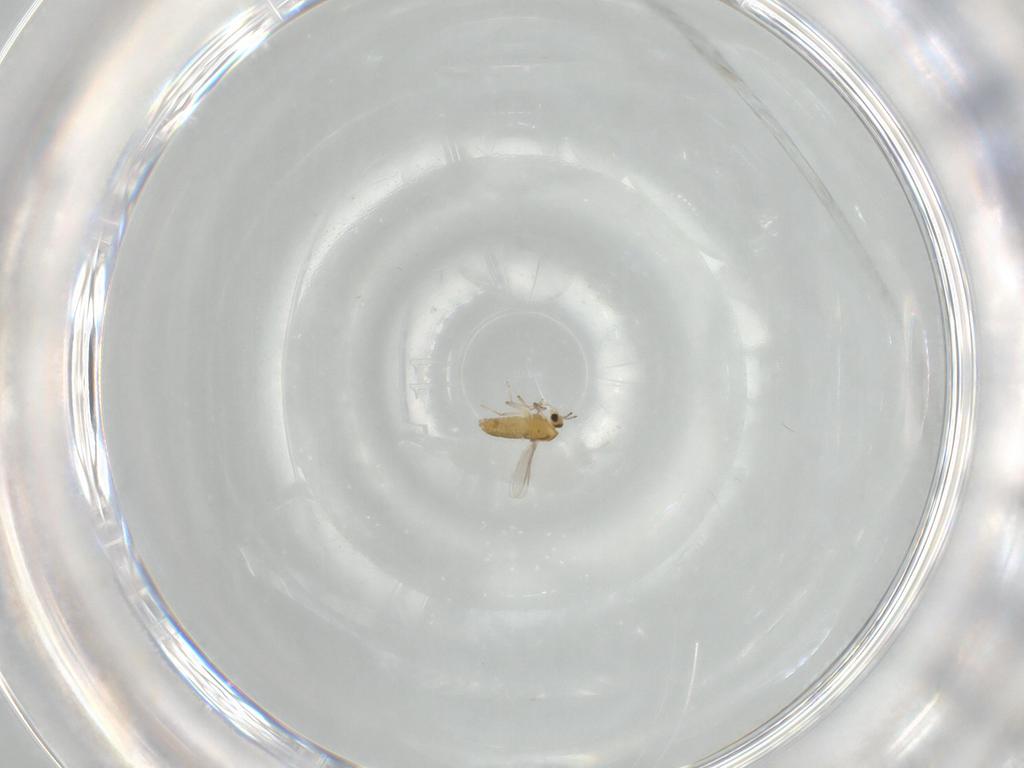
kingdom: Animalia
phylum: Arthropoda
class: Insecta
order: Diptera
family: Chironomidae
